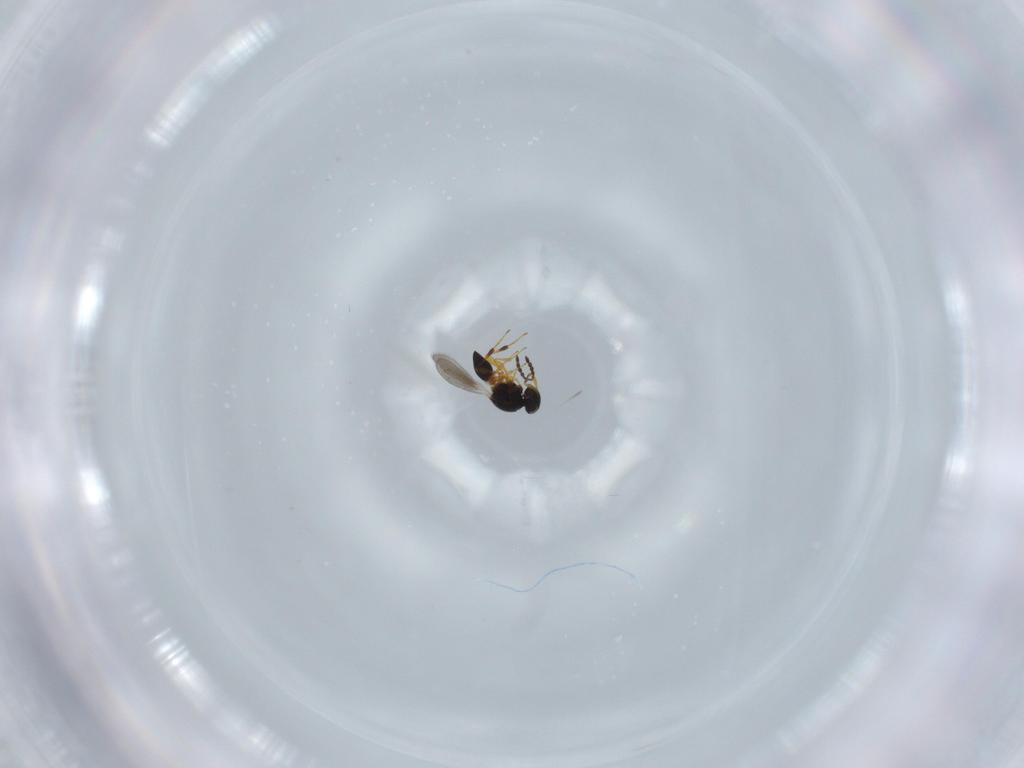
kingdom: Animalia
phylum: Arthropoda
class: Insecta
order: Hymenoptera
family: Platygastridae
